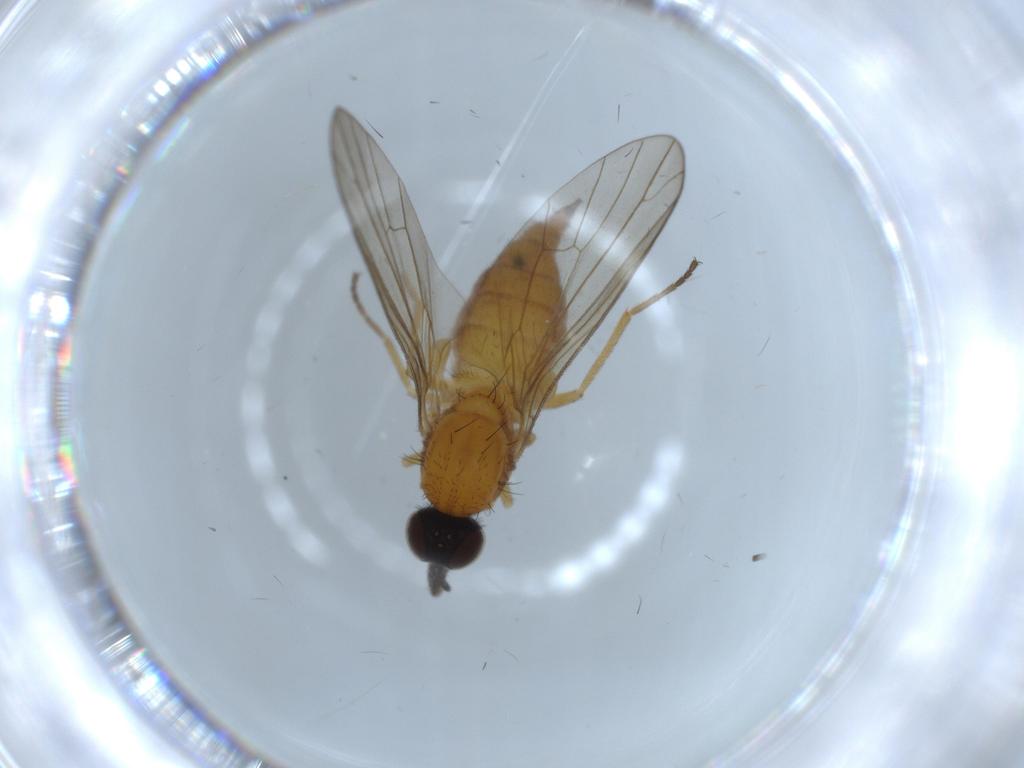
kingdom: Animalia
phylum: Arthropoda
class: Insecta
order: Diptera
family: Iteaphilidae
